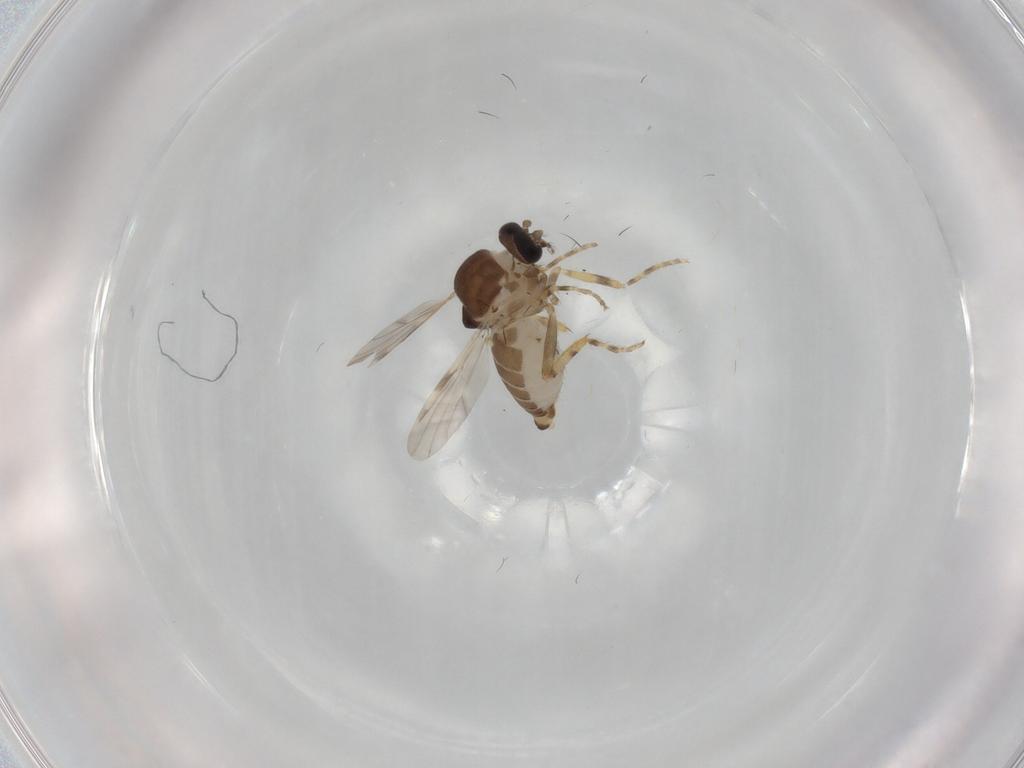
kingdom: Animalia
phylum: Arthropoda
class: Insecta
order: Diptera
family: Ceratopogonidae
